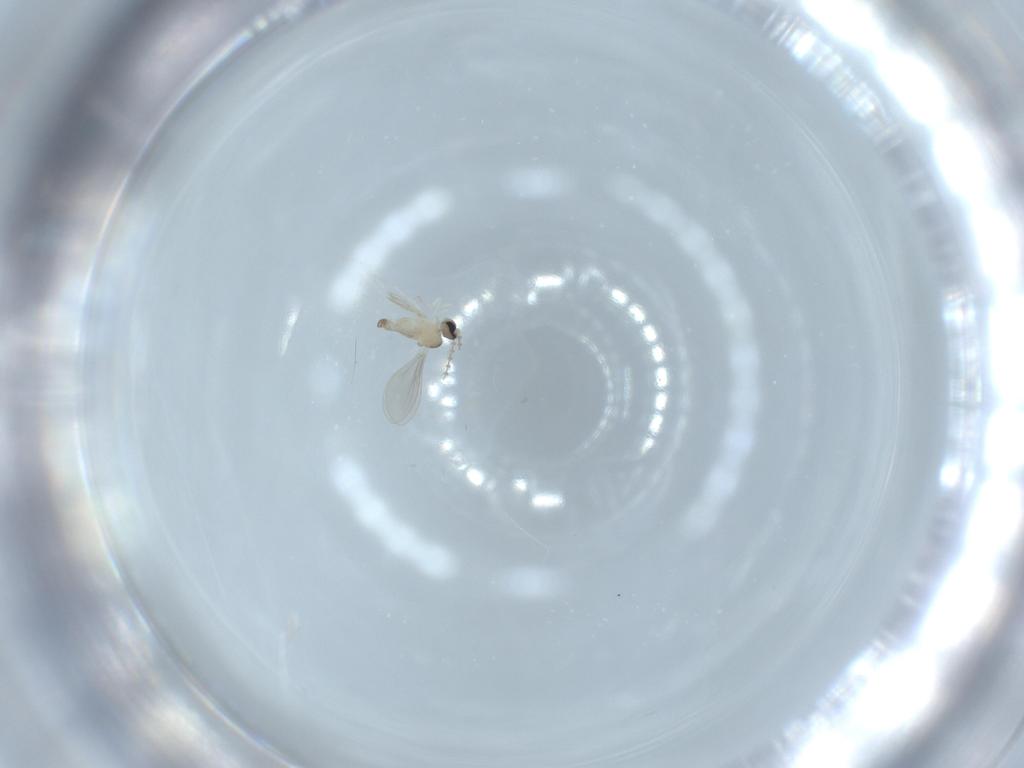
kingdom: Animalia
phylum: Arthropoda
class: Insecta
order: Diptera
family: Cecidomyiidae
